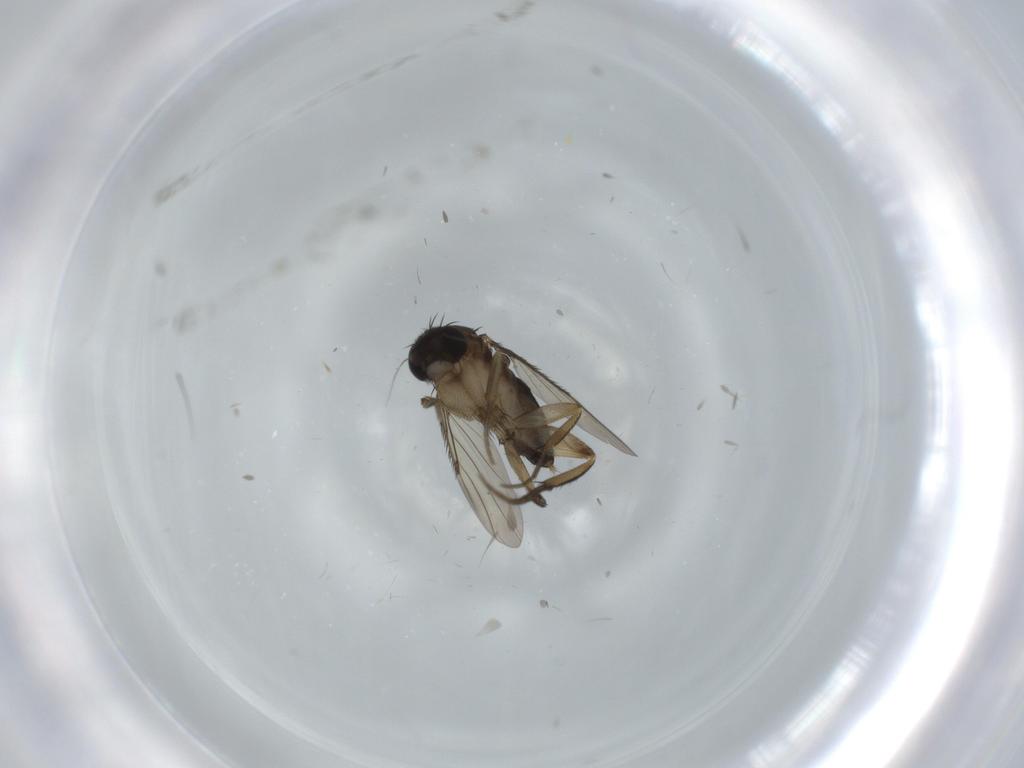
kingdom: Animalia
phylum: Arthropoda
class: Insecta
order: Diptera
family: Phoridae
